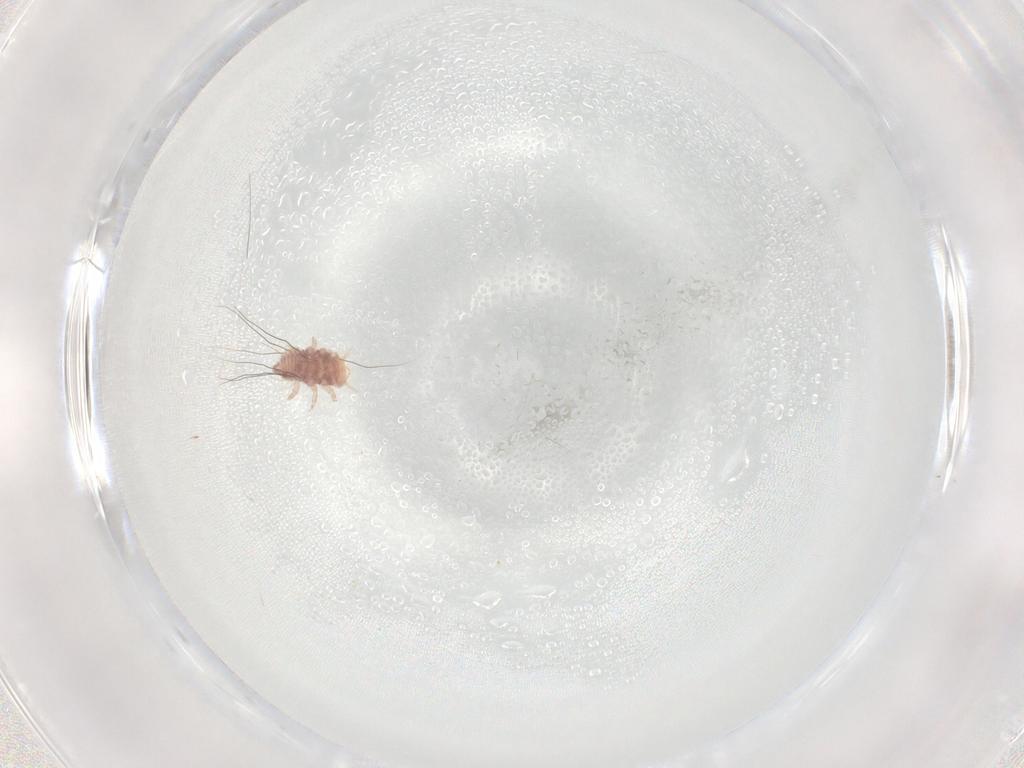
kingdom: Animalia
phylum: Arthropoda
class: Insecta
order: Neuroptera
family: Chrysopidae
